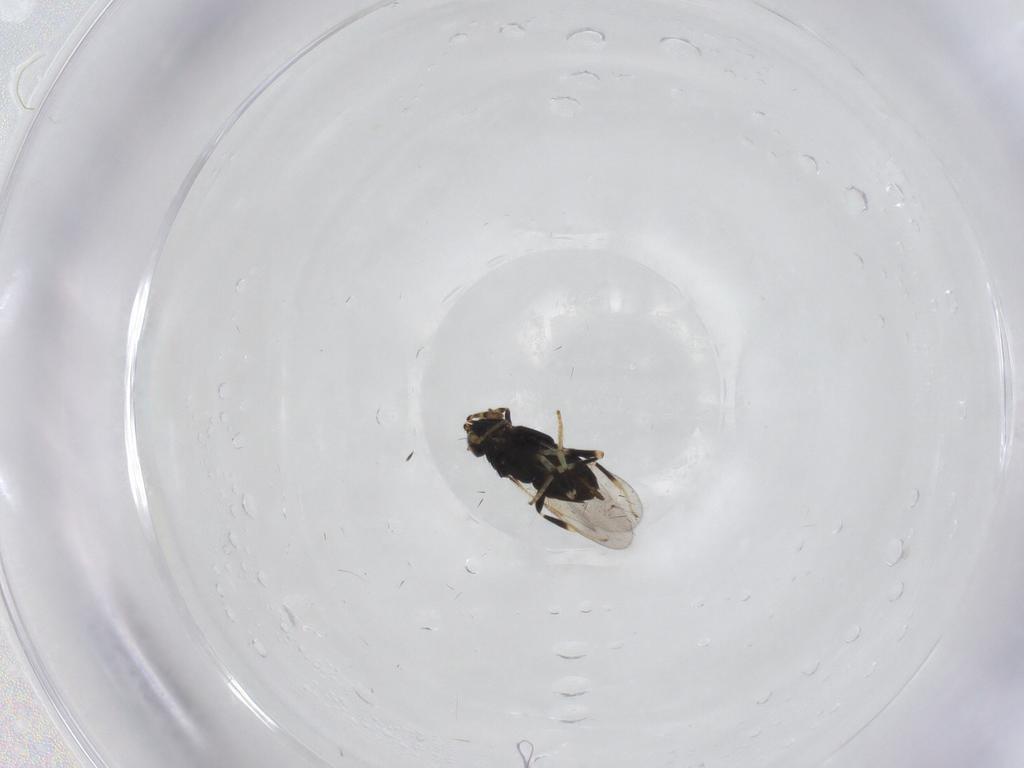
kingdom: Animalia
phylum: Arthropoda
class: Insecta
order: Hymenoptera
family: Encyrtidae
